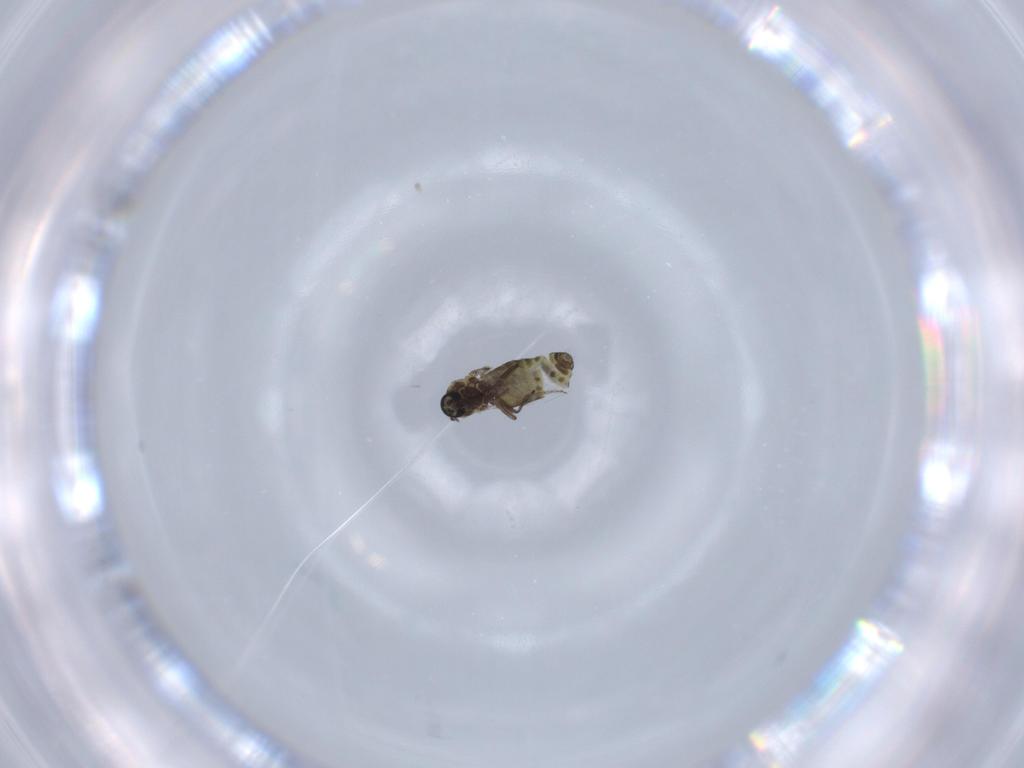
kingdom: Animalia
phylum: Arthropoda
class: Insecta
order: Diptera
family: Ceratopogonidae
